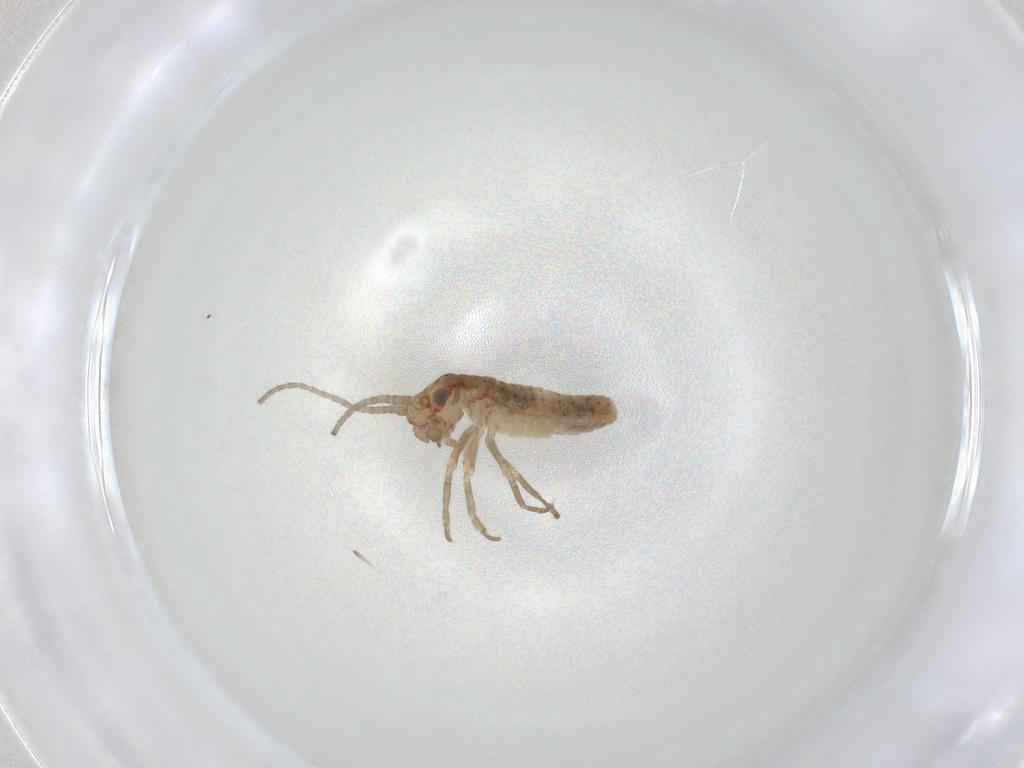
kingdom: Animalia
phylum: Arthropoda
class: Insecta
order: Orthoptera
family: Mogoplistidae
